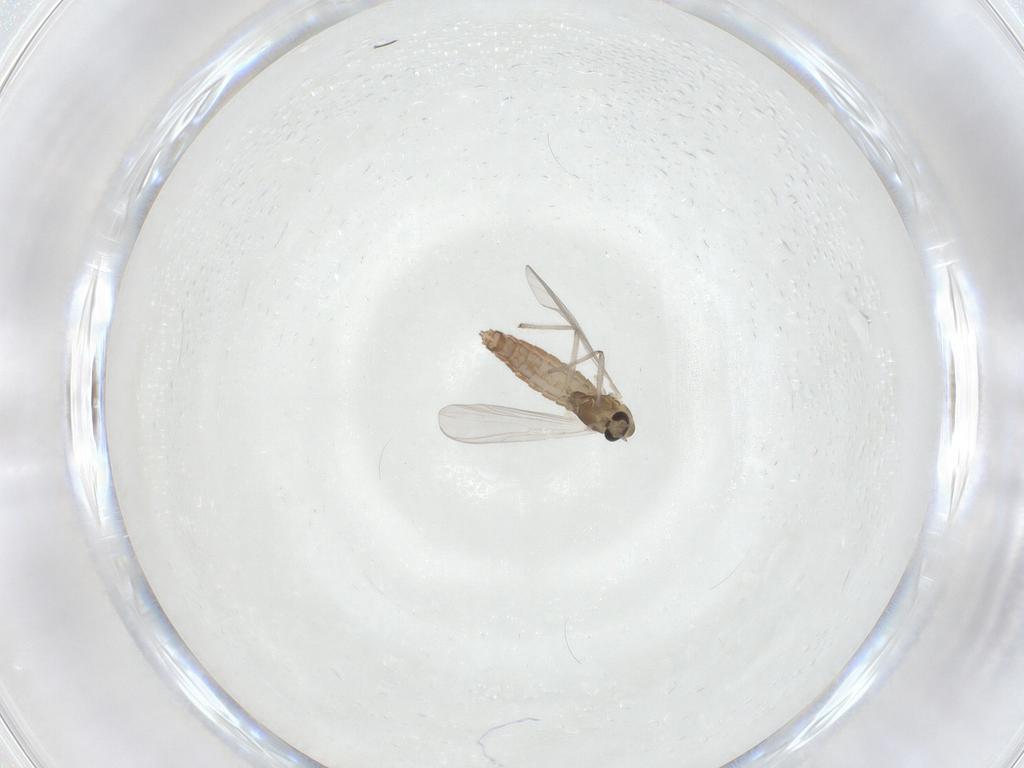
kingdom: Animalia
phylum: Arthropoda
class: Insecta
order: Diptera
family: Chironomidae
